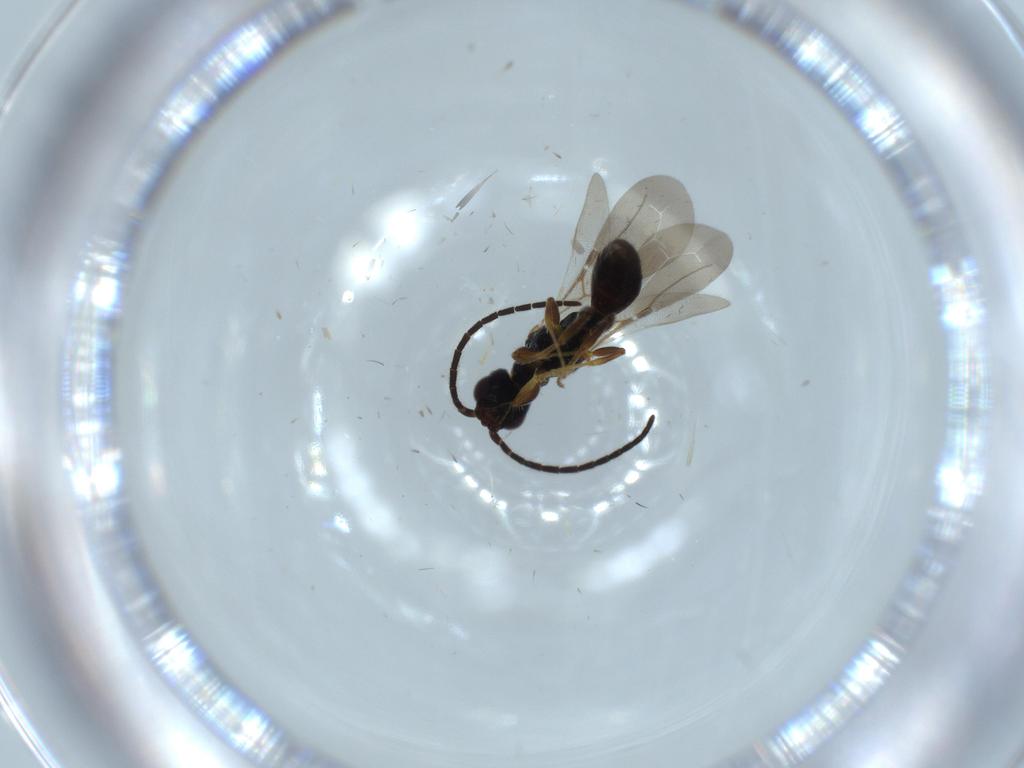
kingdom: Animalia
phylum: Arthropoda
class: Insecta
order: Hymenoptera
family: Bethylidae
